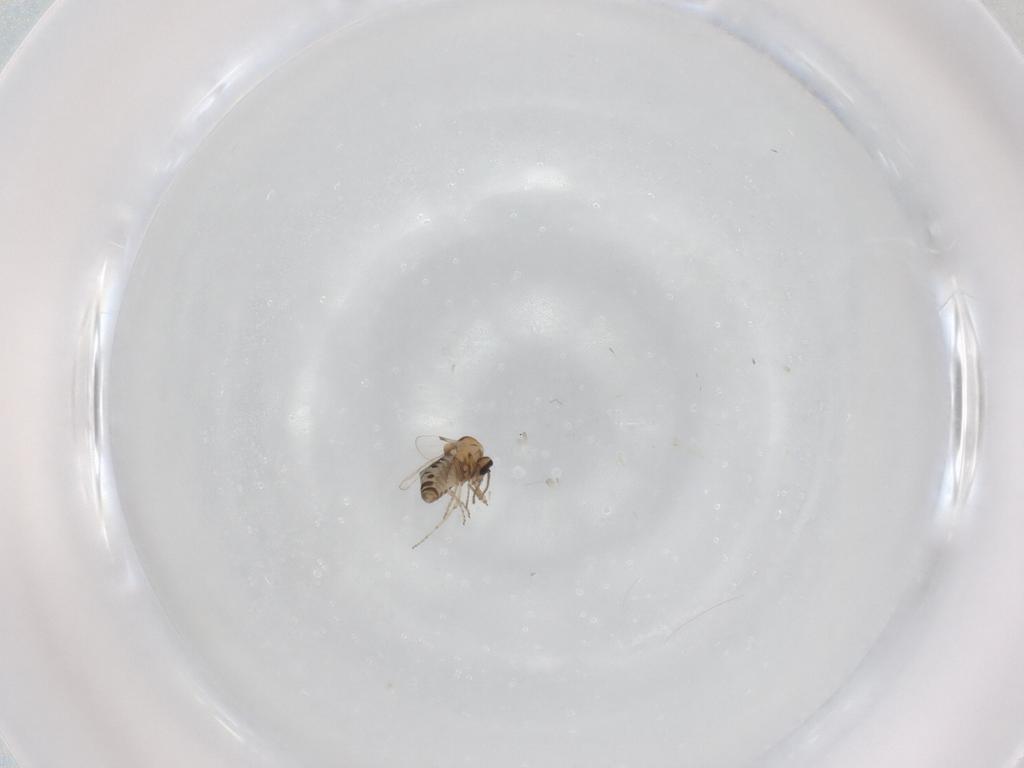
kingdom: Animalia
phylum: Arthropoda
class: Insecta
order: Diptera
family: Ceratopogonidae
